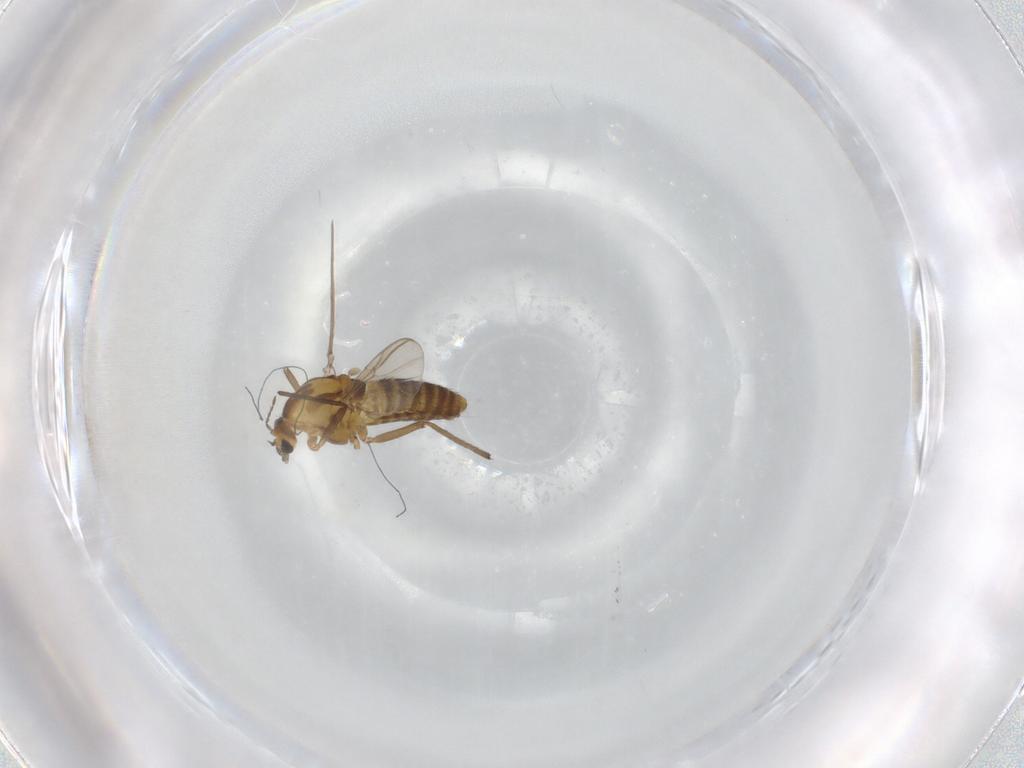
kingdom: Animalia
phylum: Arthropoda
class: Insecta
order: Diptera
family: Chironomidae
